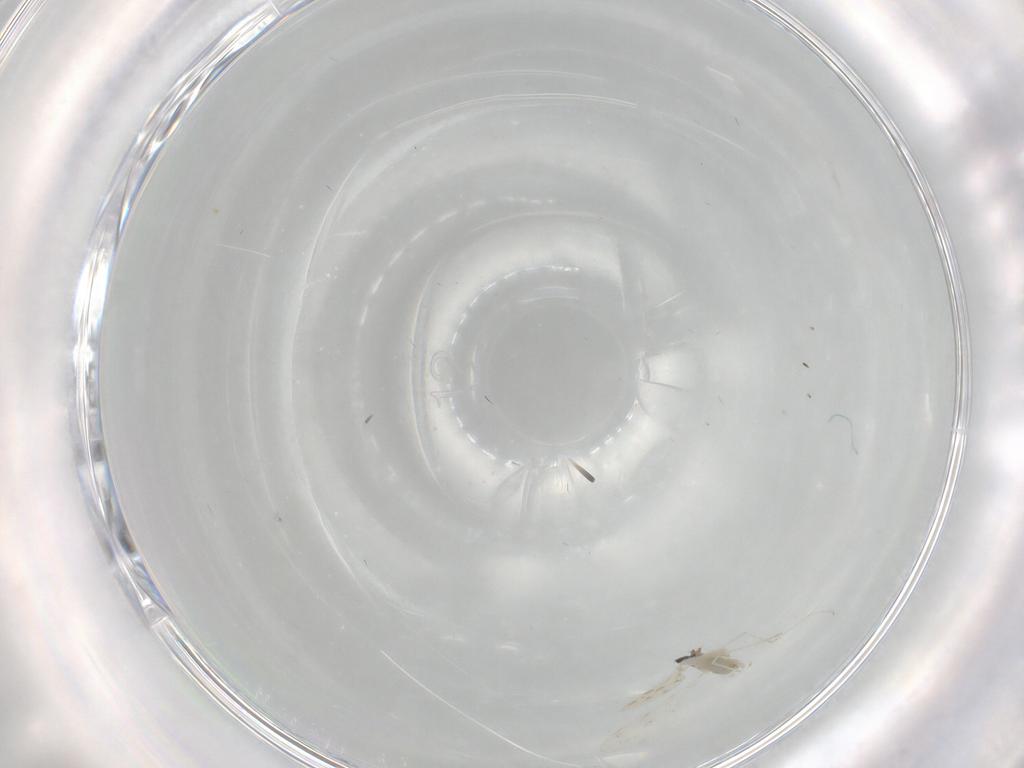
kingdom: Animalia
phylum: Arthropoda
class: Insecta
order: Diptera
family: Cecidomyiidae
